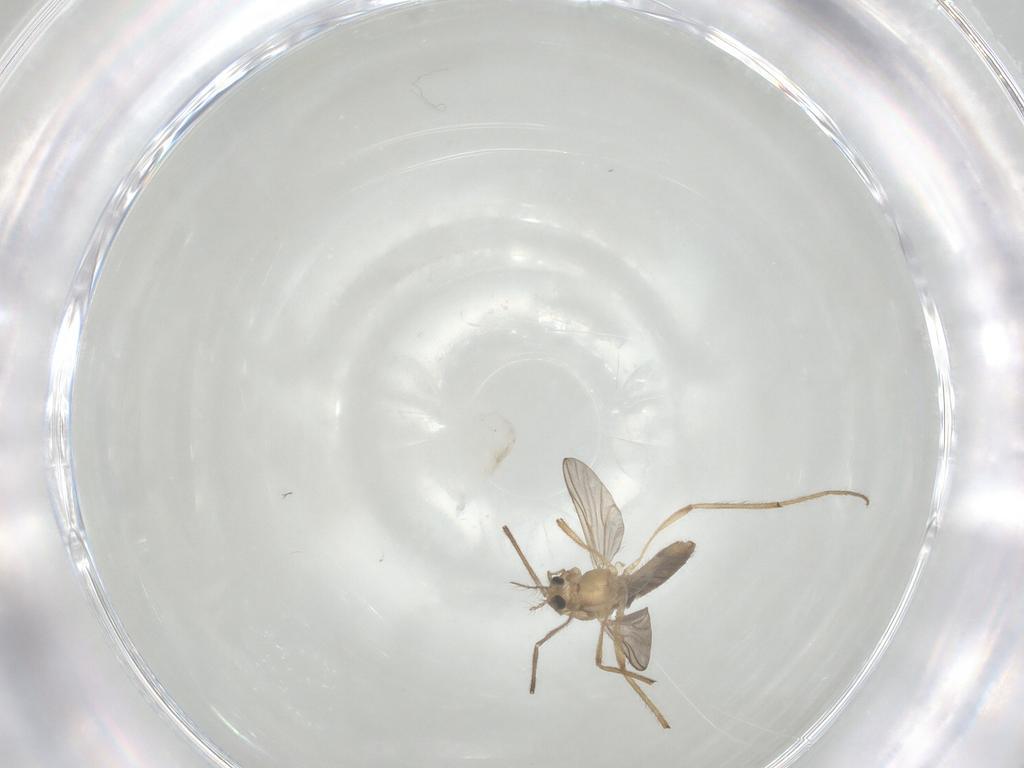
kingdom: Animalia
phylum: Arthropoda
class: Insecta
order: Diptera
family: Chironomidae
